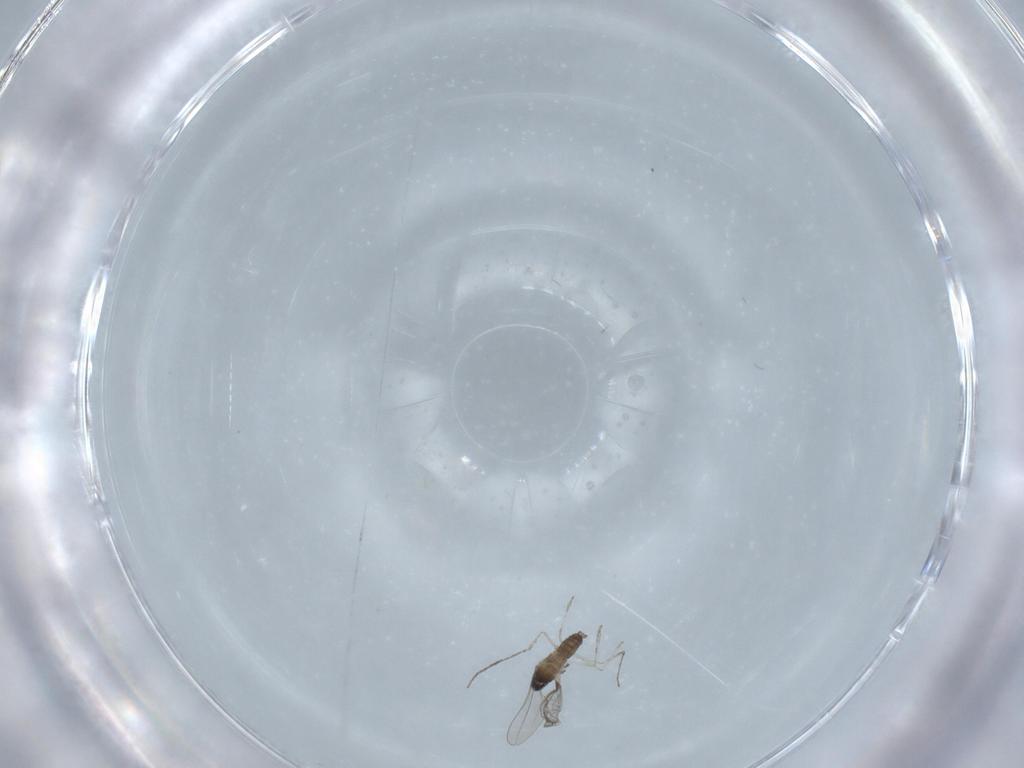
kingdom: Animalia
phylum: Arthropoda
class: Insecta
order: Diptera
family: Cecidomyiidae
